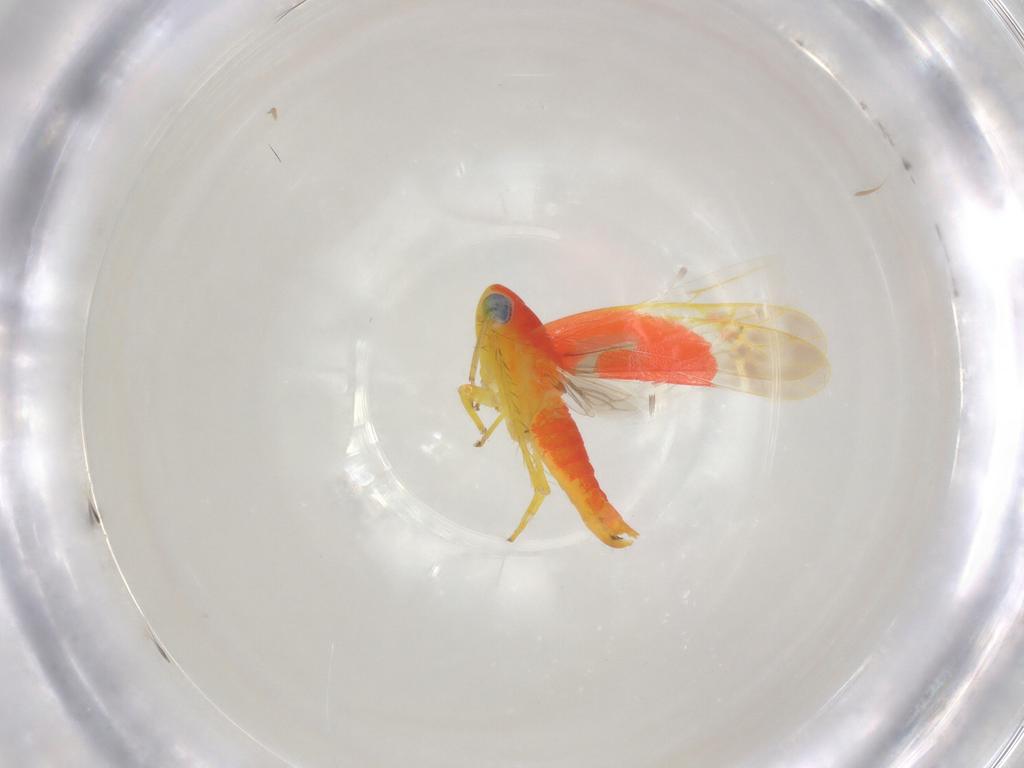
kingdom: Animalia
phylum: Arthropoda
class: Insecta
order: Hemiptera
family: Cicadellidae
